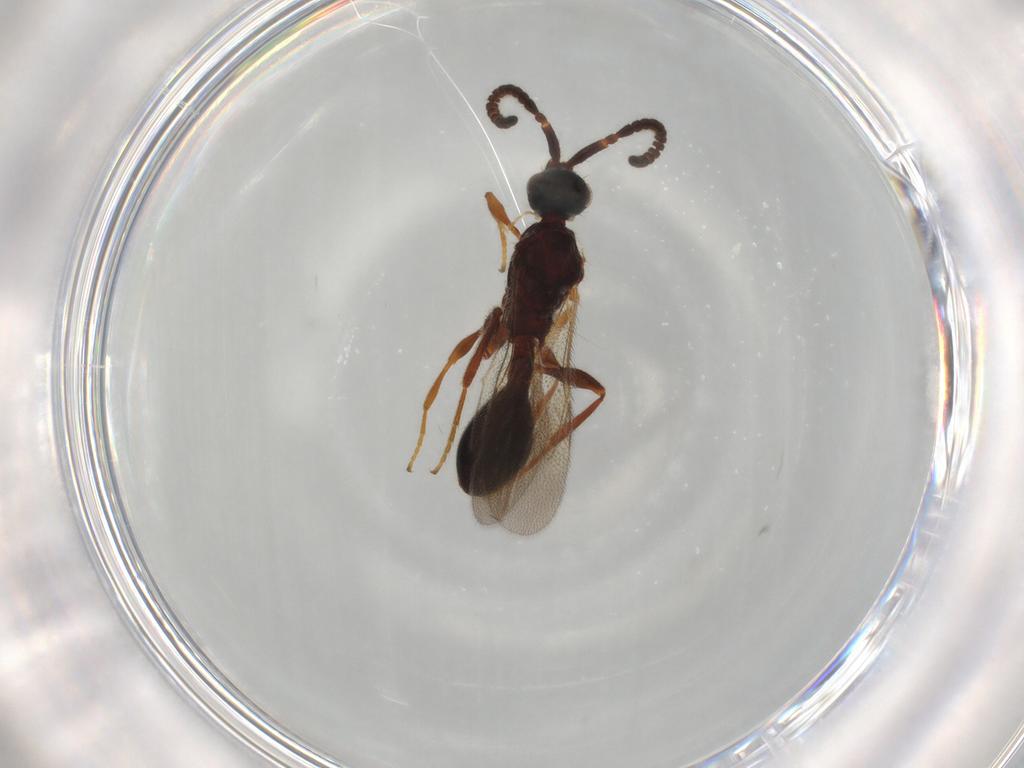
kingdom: Animalia
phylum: Arthropoda
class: Insecta
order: Hymenoptera
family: Diapriidae
